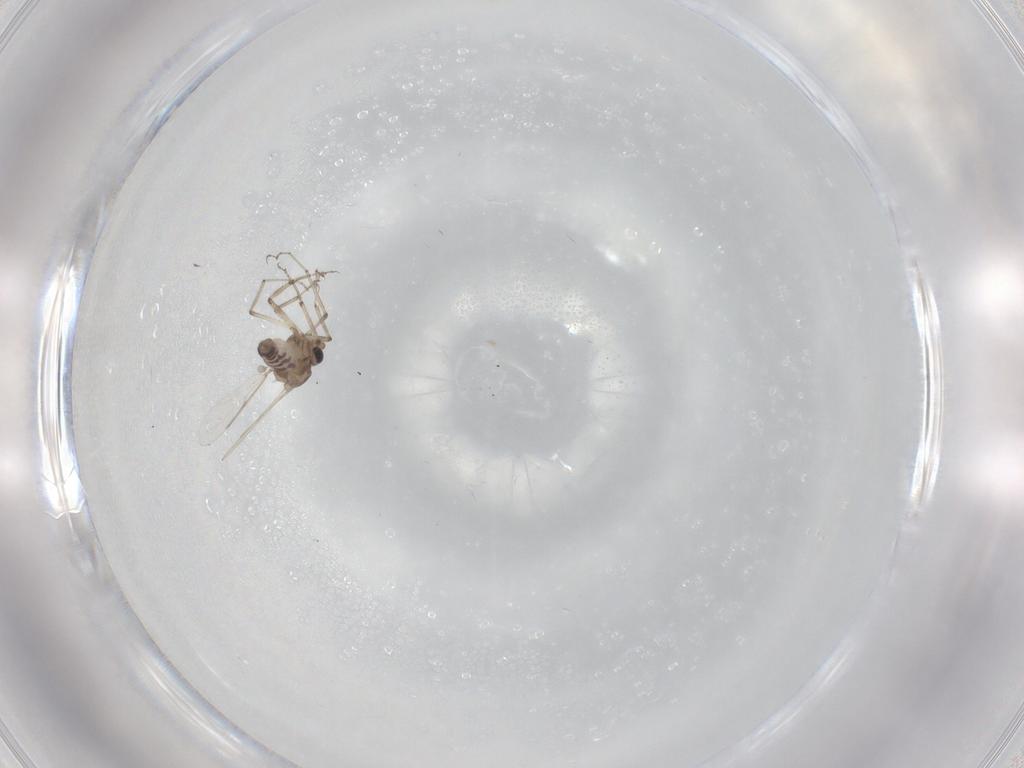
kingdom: Animalia
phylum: Arthropoda
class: Insecta
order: Diptera
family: Ceratopogonidae
